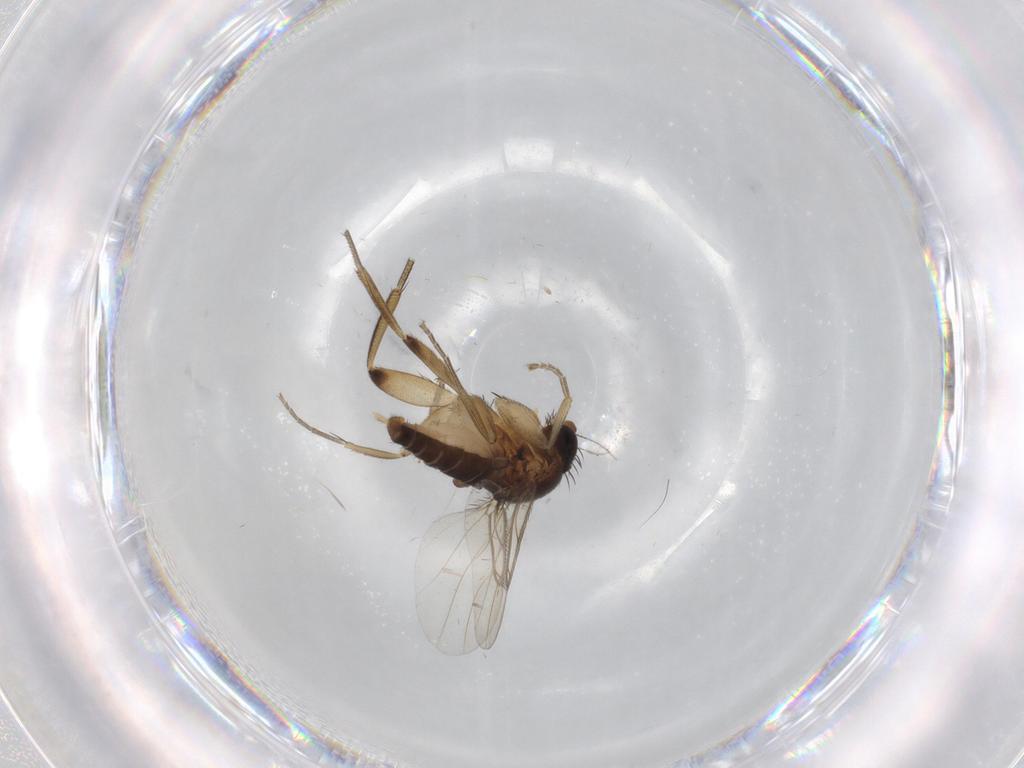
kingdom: Animalia
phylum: Arthropoda
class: Insecta
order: Diptera
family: Phoridae
